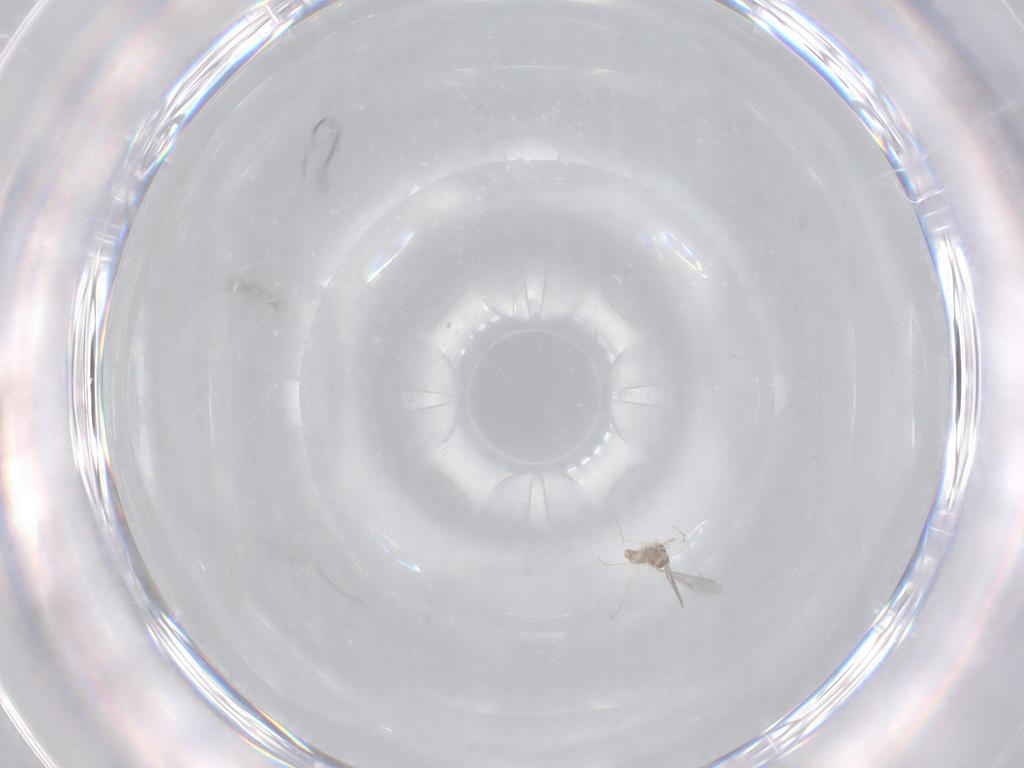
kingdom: Animalia
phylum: Arthropoda
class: Insecta
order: Diptera
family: Cecidomyiidae
